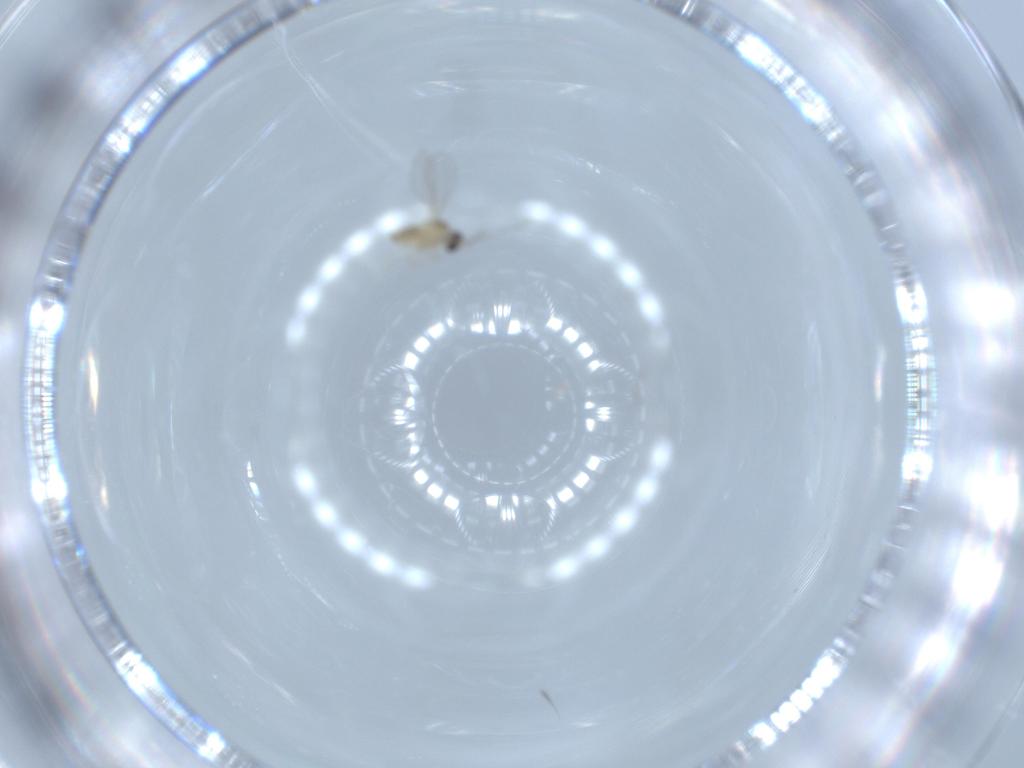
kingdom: Animalia
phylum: Arthropoda
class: Insecta
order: Diptera
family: Cecidomyiidae
